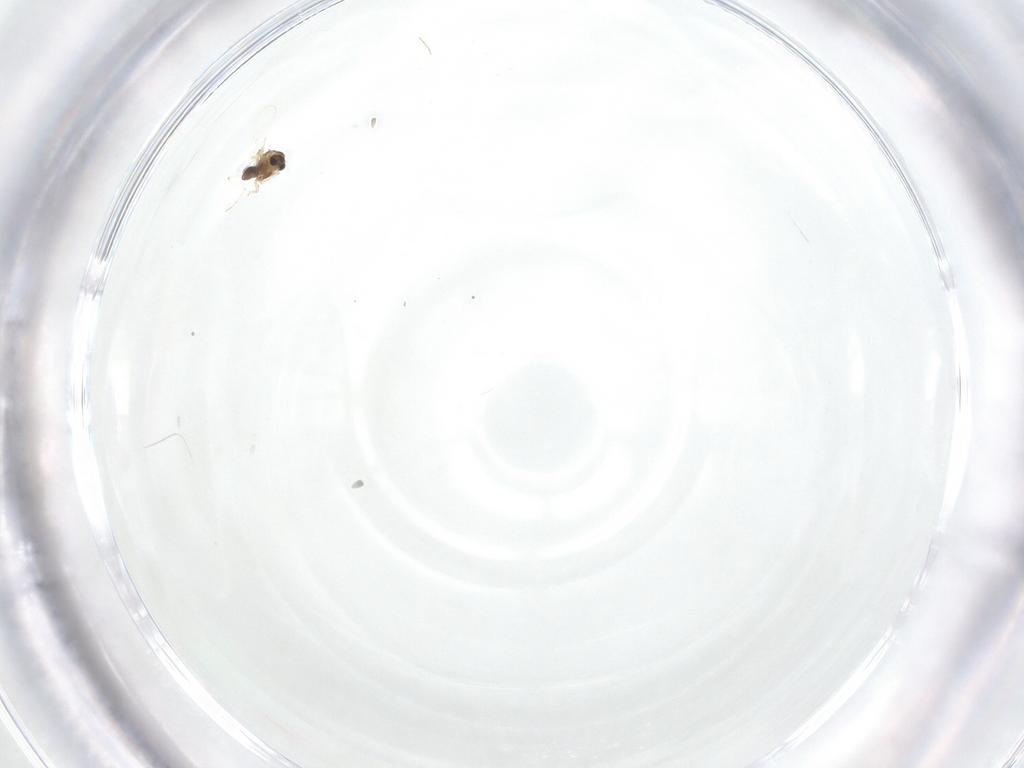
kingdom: Animalia
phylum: Arthropoda
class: Insecta
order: Diptera
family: Chironomidae
